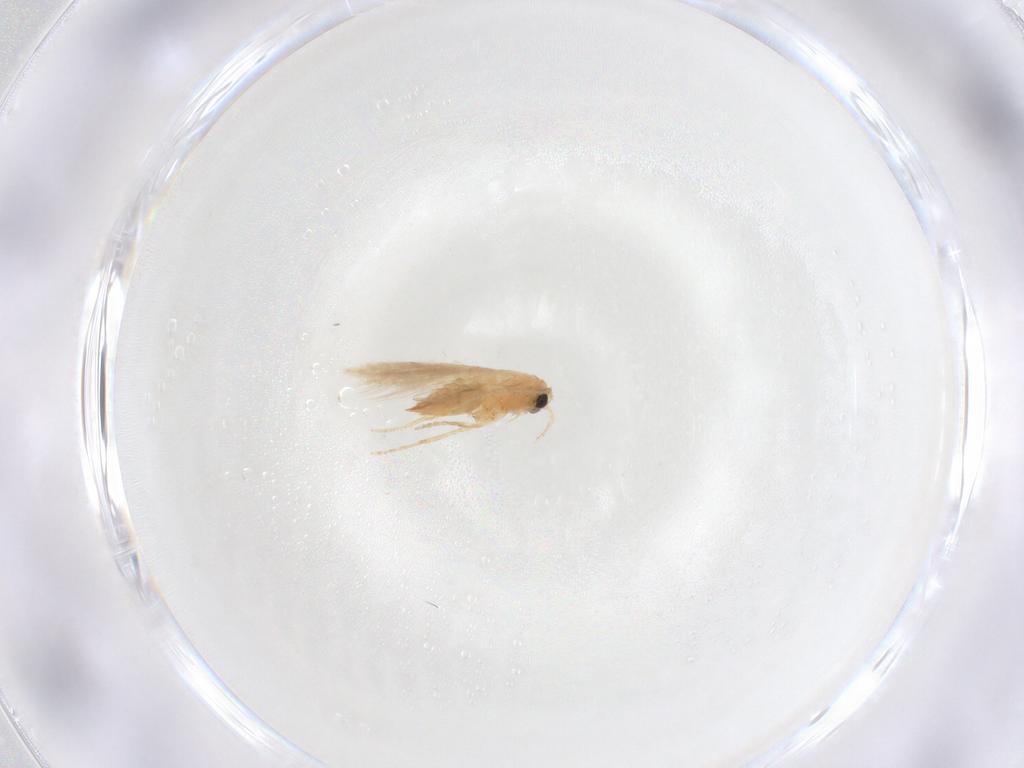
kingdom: Animalia
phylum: Arthropoda
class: Insecta
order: Lepidoptera
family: Nepticulidae
